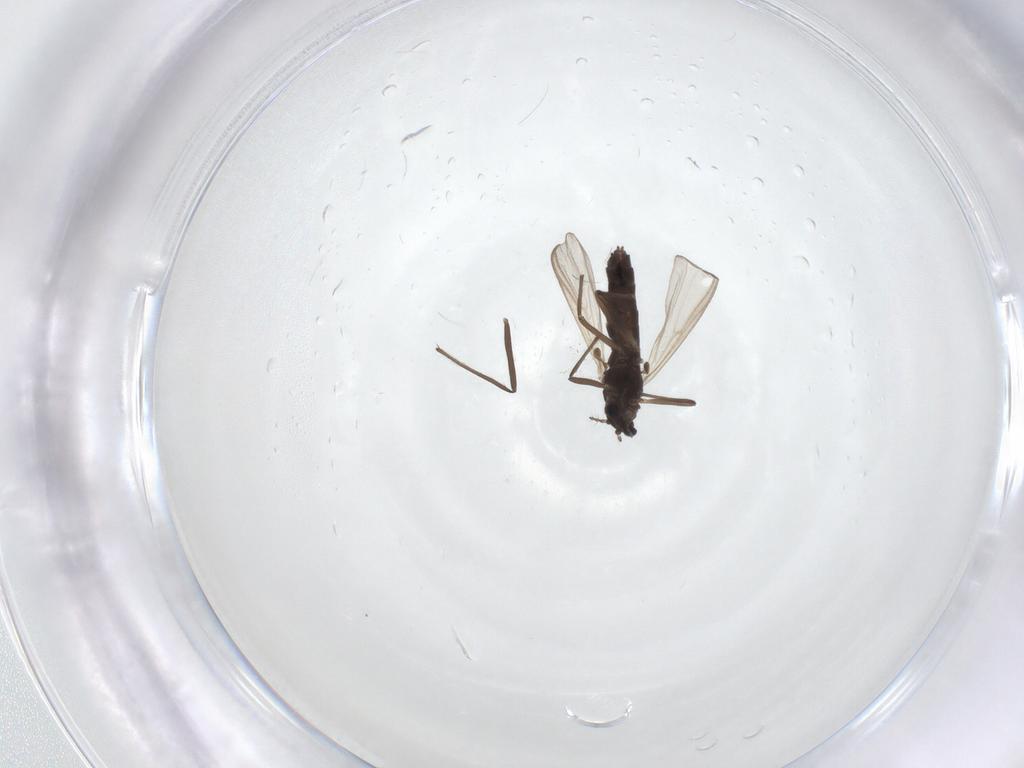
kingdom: Animalia
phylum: Arthropoda
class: Insecta
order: Diptera
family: Chironomidae
